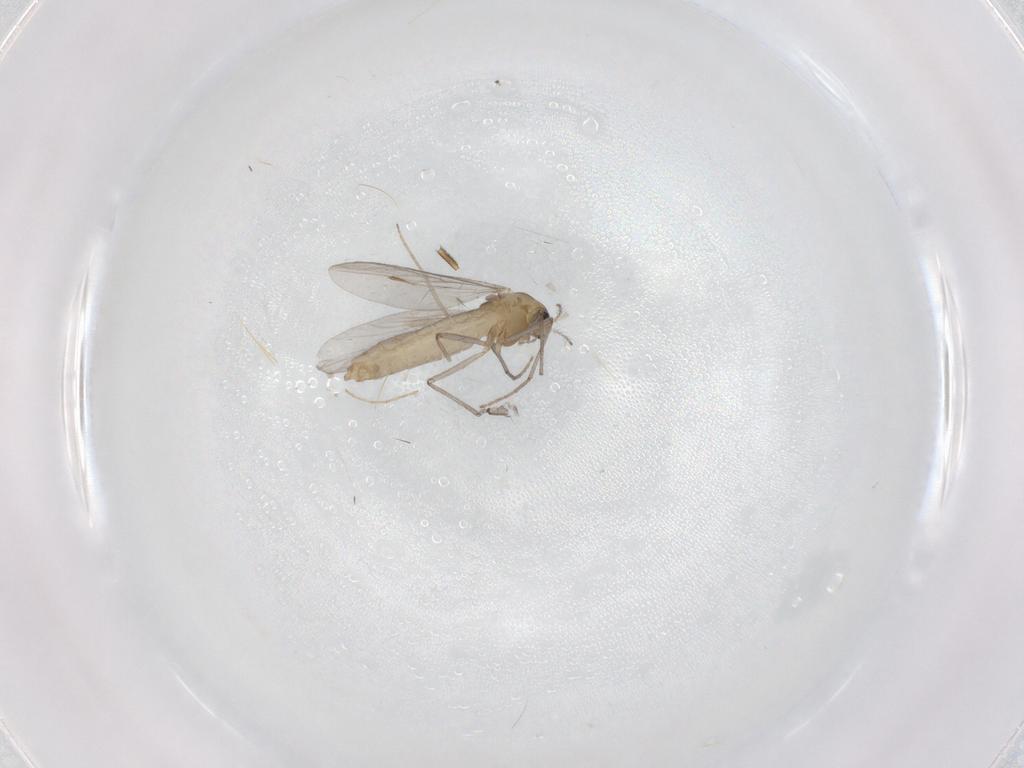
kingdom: Animalia
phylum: Arthropoda
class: Insecta
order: Diptera
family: Chironomidae
